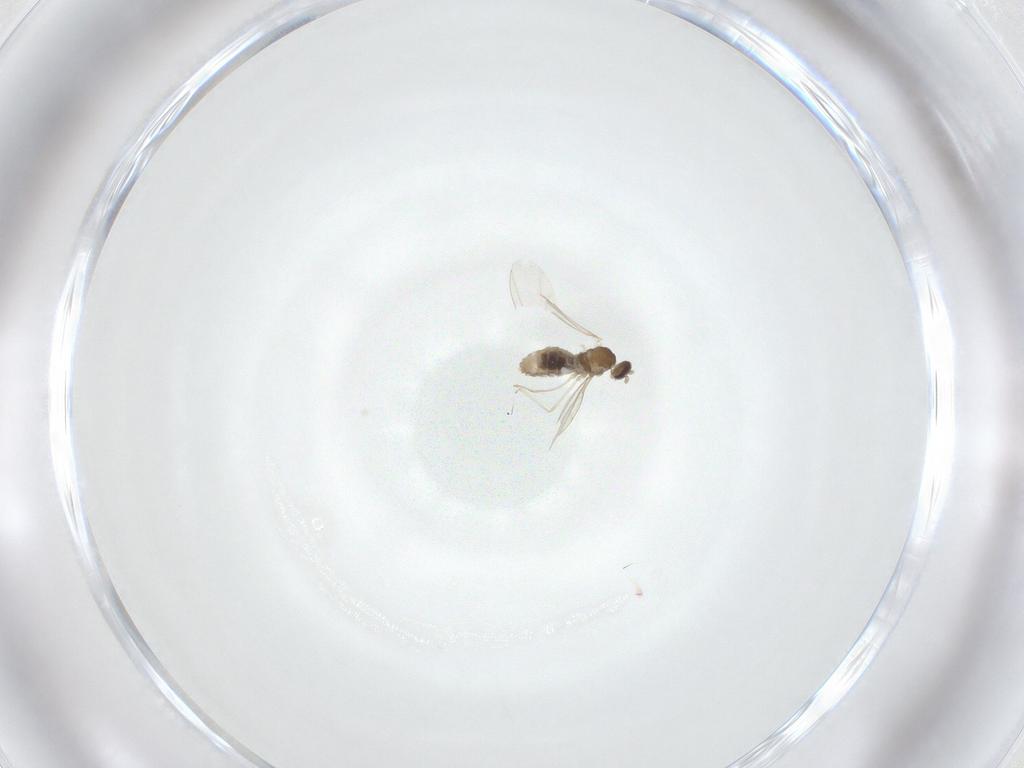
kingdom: Animalia
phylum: Arthropoda
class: Insecta
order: Diptera
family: Cecidomyiidae
